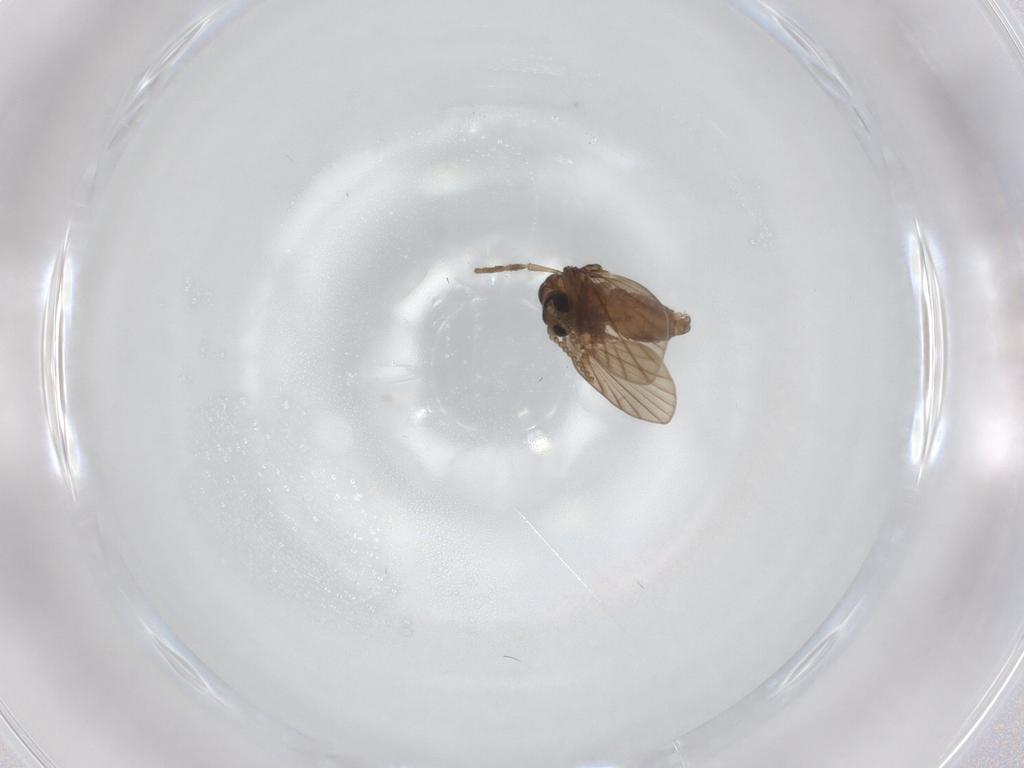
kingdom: Animalia
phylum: Arthropoda
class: Insecta
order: Diptera
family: Psychodidae
